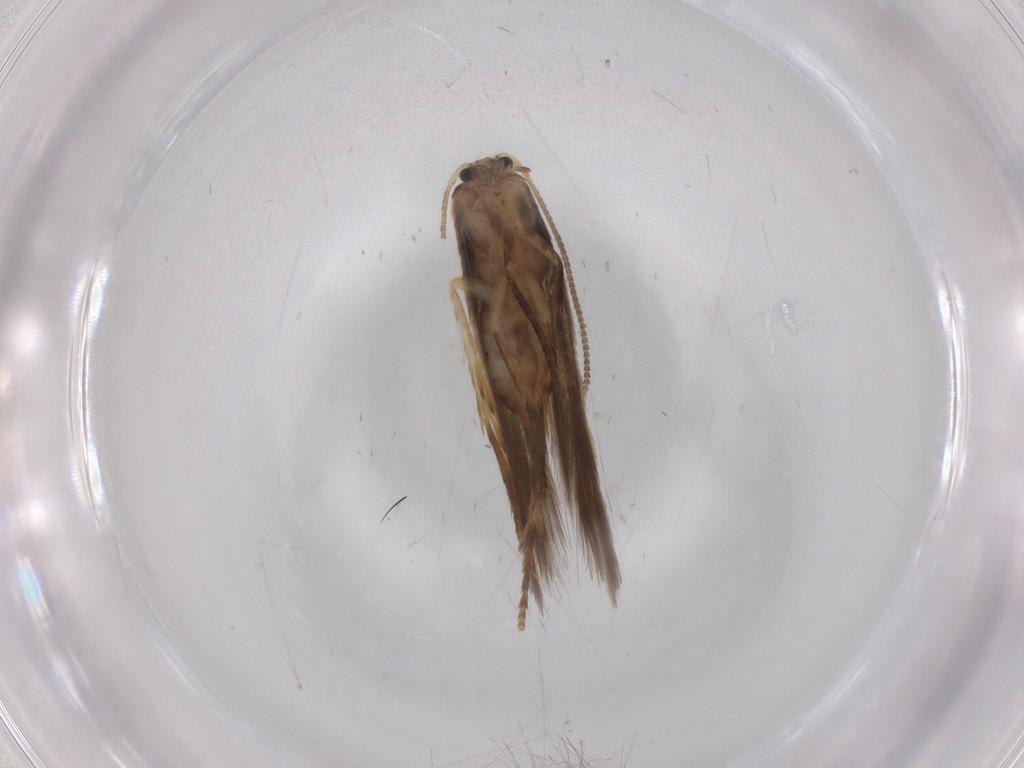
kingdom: Animalia
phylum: Arthropoda
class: Insecta
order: Lepidoptera
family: Nepticulidae
